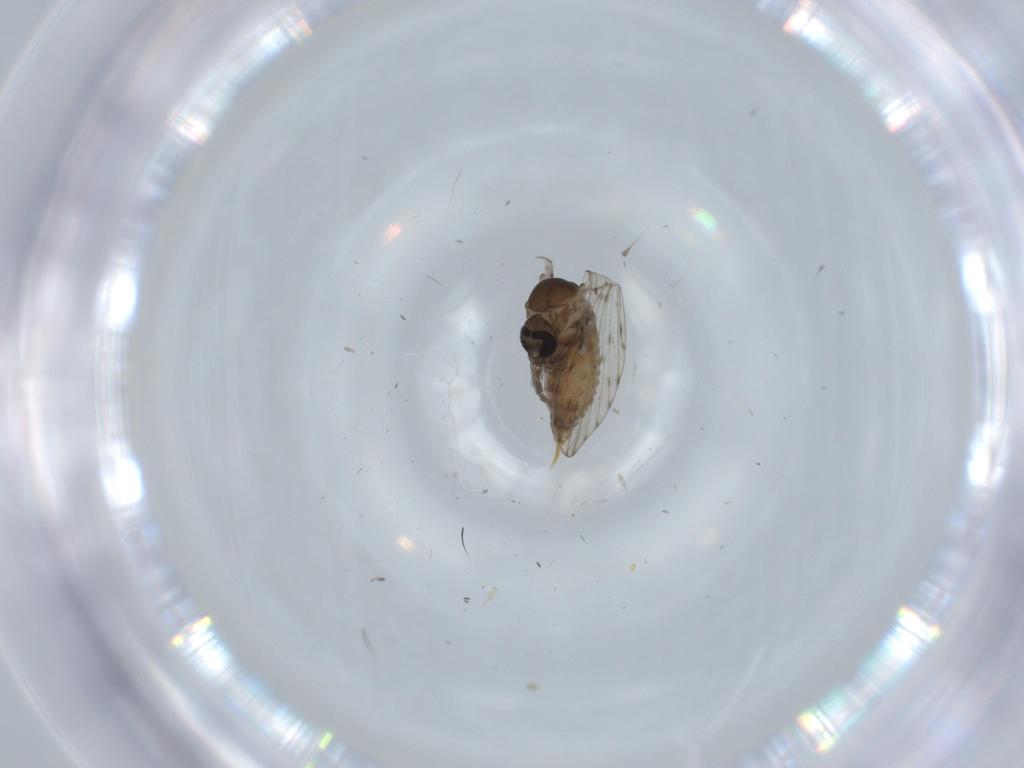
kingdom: Animalia
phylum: Arthropoda
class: Insecta
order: Diptera
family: Psychodidae
